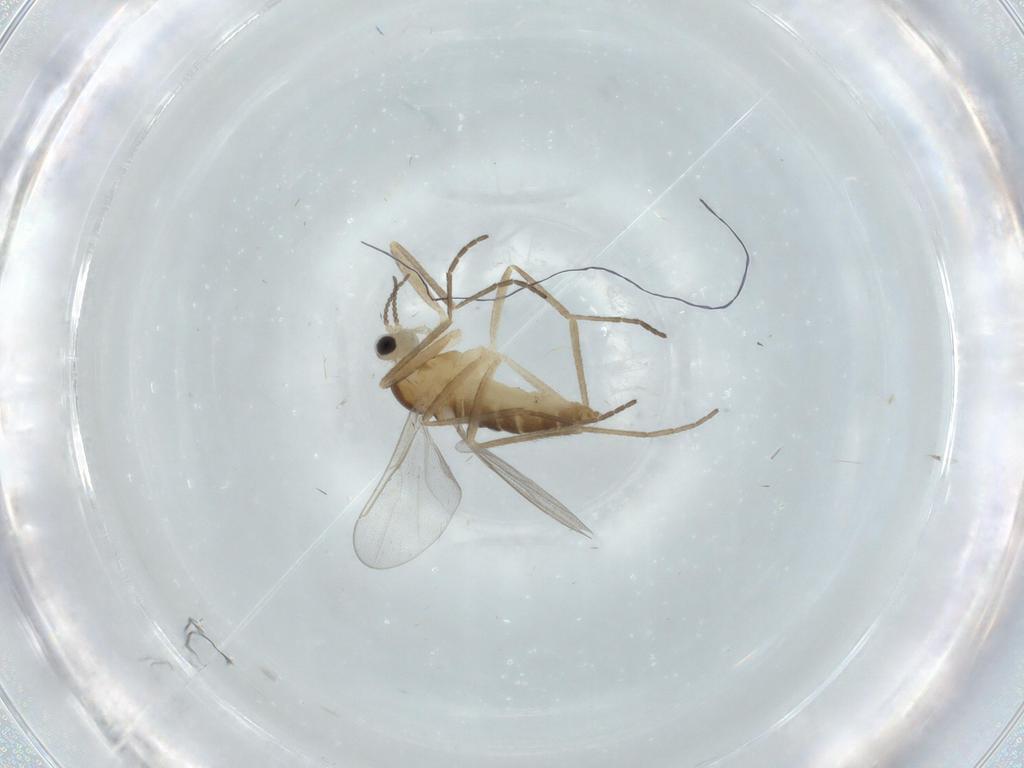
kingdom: Animalia
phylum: Arthropoda
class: Insecta
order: Diptera
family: Cecidomyiidae
